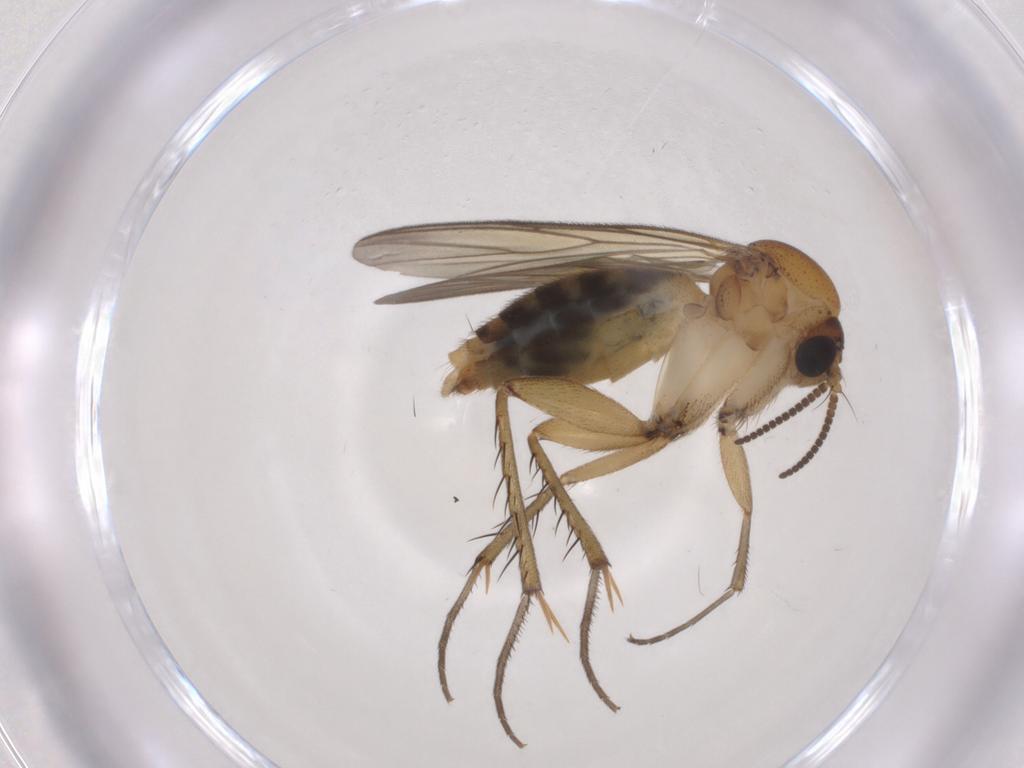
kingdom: Animalia
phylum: Arthropoda
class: Insecta
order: Diptera
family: Mycetophilidae
